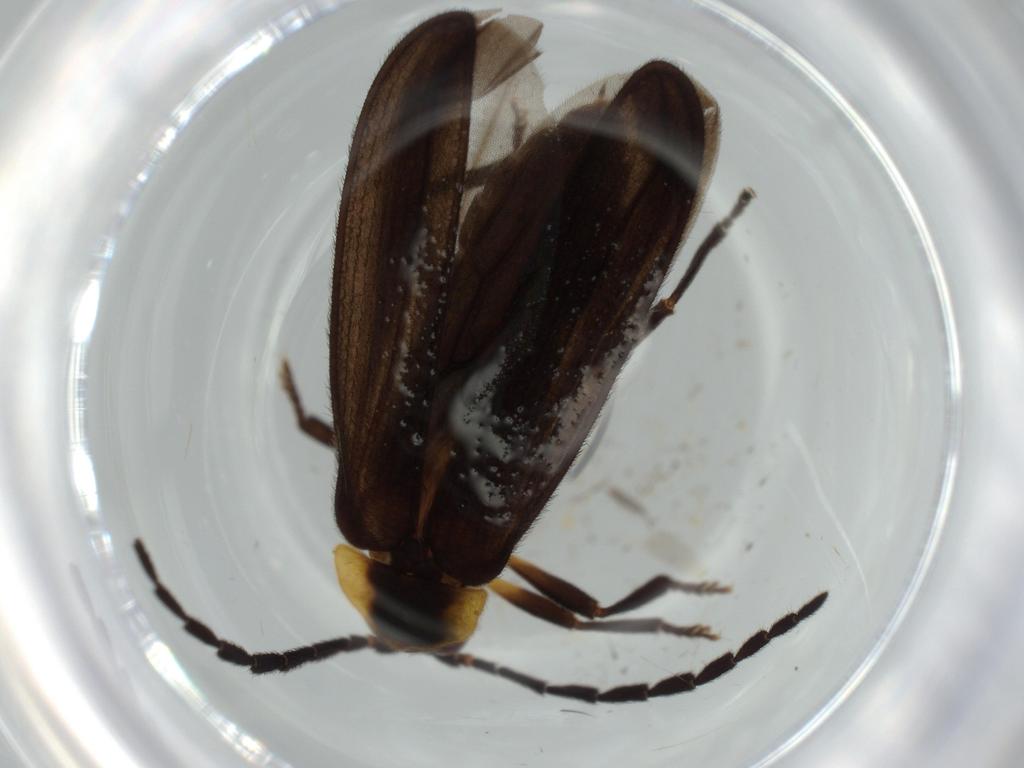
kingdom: Animalia
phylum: Arthropoda
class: Insecta
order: Coleoptera
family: Lycidae
